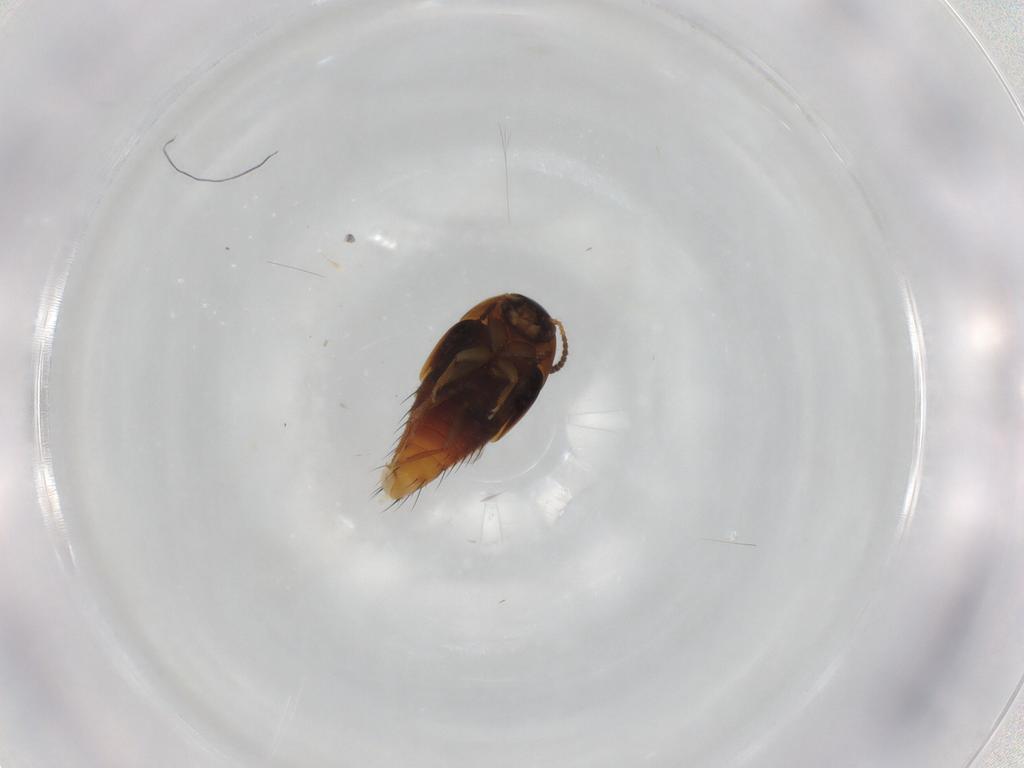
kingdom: Animalia
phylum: Arthropoda
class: Insecta
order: Coleoptera
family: Staphylinidae
